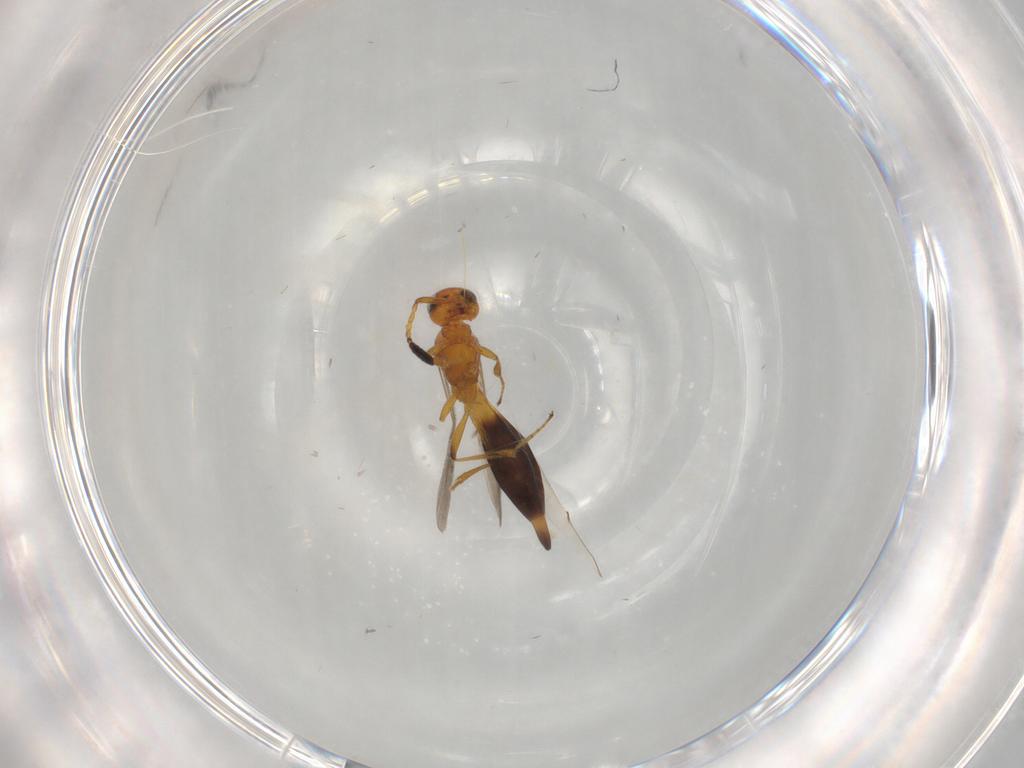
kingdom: Animalia
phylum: Arthropoda
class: Insecta
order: Hymenoptera
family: Scelionidae
